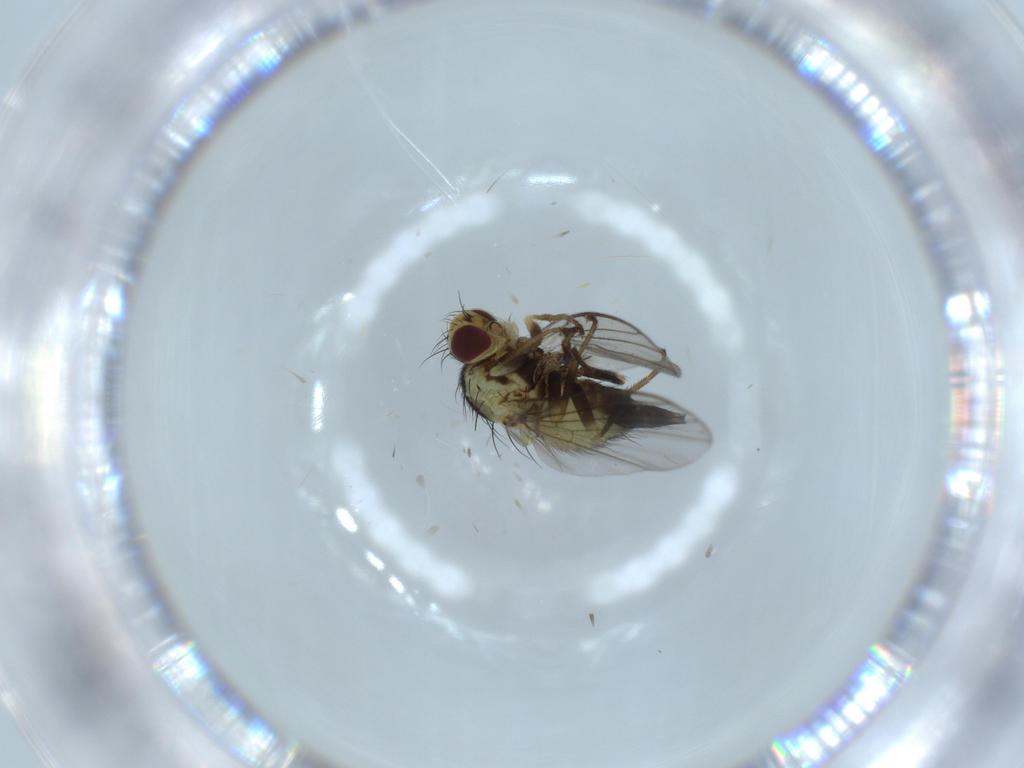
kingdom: Animalia
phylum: Arthropoda
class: Insecta
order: Diptera
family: Agromyzidae
